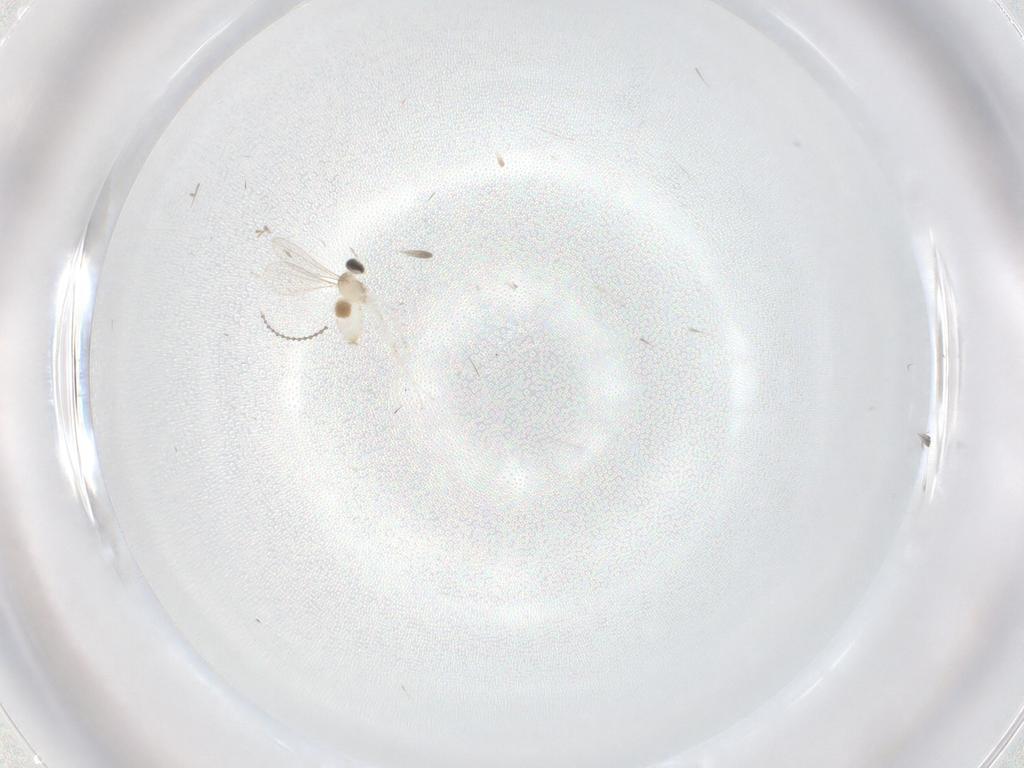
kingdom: Animalia
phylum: Arthropoda
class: Insecta
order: Diptera
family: Cecidomyiidae
